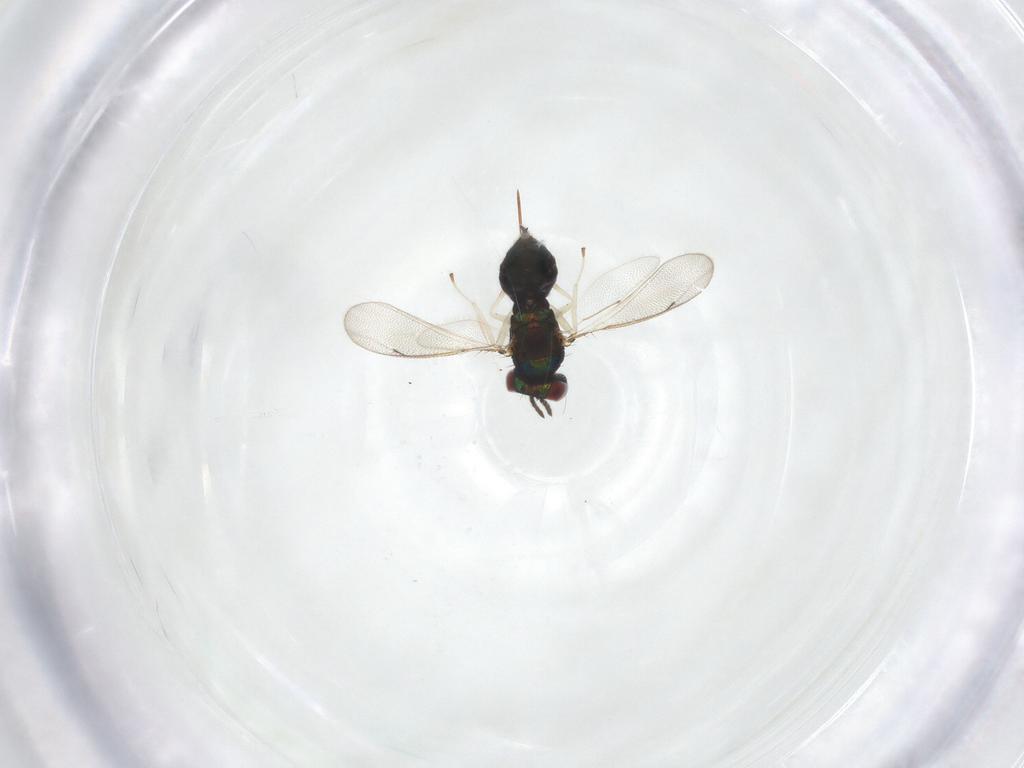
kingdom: Animalia
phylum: Arthropoda
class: Insecta
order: Hymenoptera
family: Eulophidae
